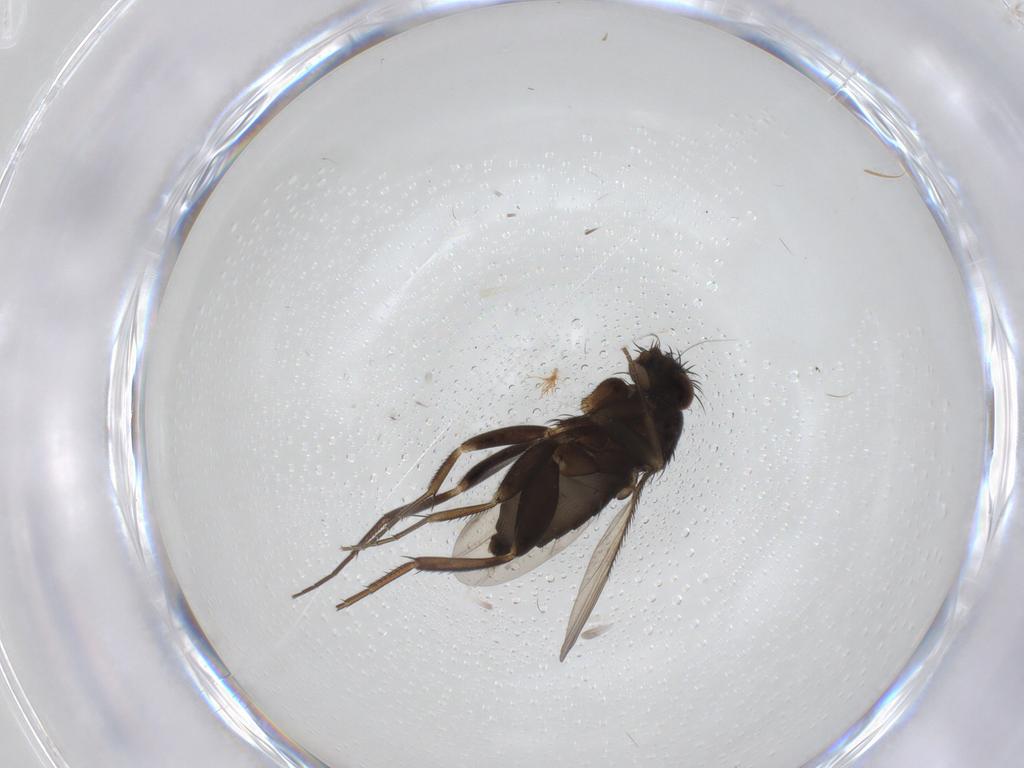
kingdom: Animalia
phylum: Arthropoda
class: Insecta
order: Diptera
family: Phoridae
